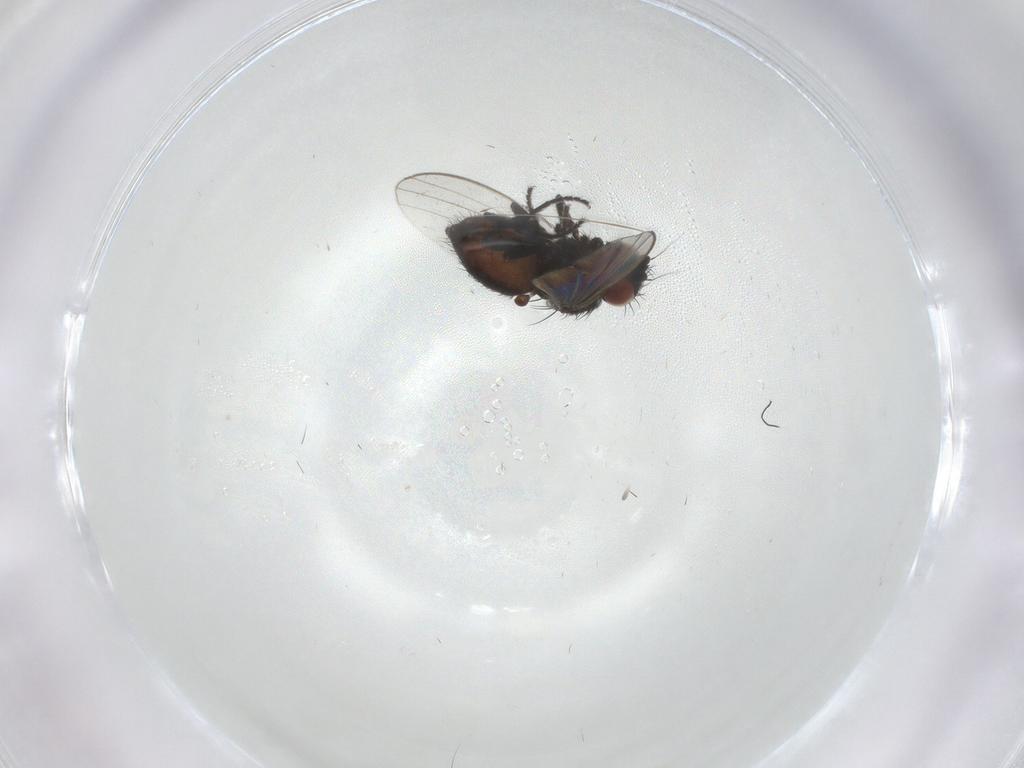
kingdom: Animalia
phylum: Arthropoda
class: Insecta
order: Diptera
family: Milichiidae
